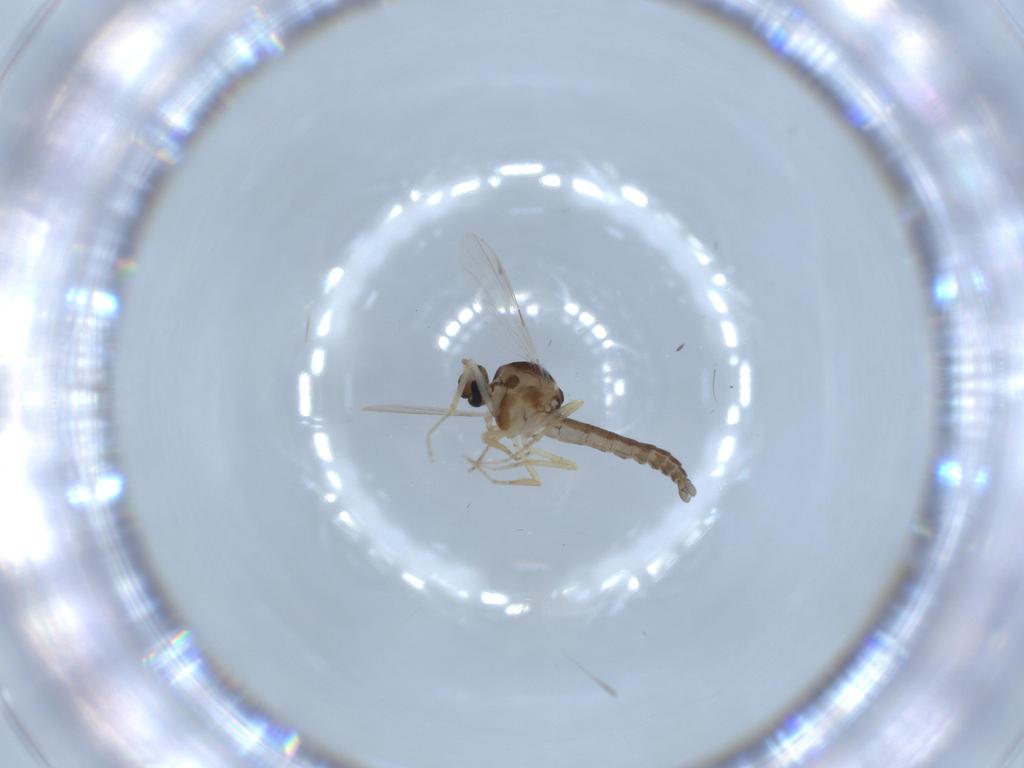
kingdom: Animalia
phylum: Arthropoda
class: Insecta
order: Diptera
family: Ceratopogonidae
